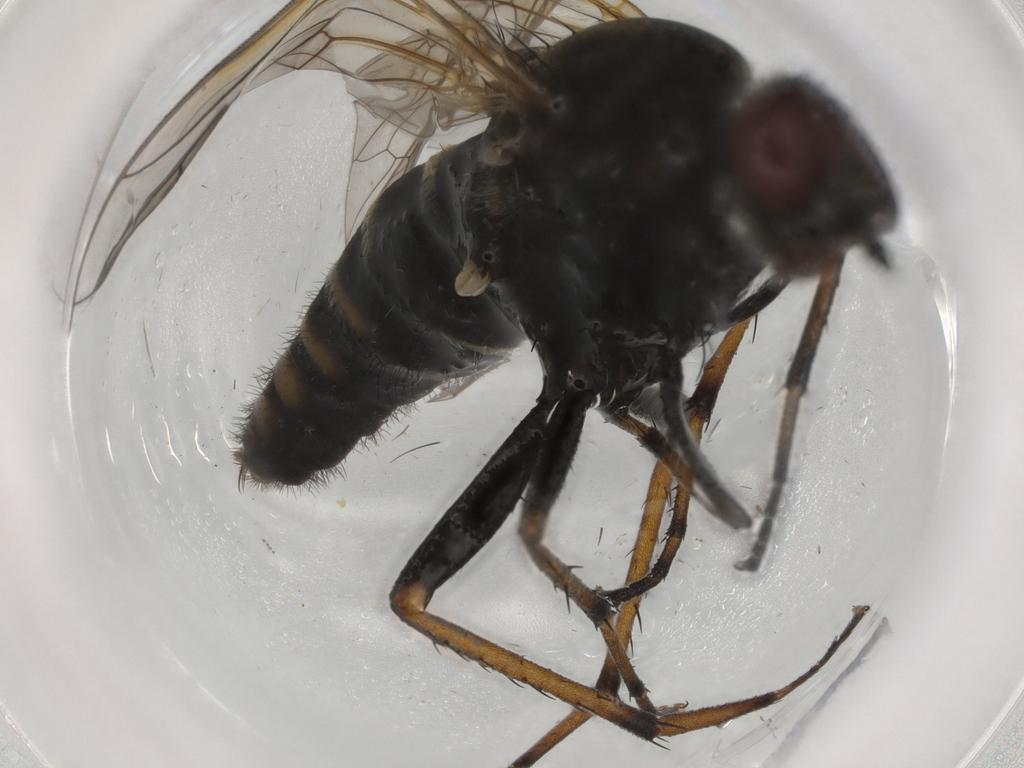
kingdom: Animalia
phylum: Arthropoda
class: Insecta
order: Diptera
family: Therevidae
